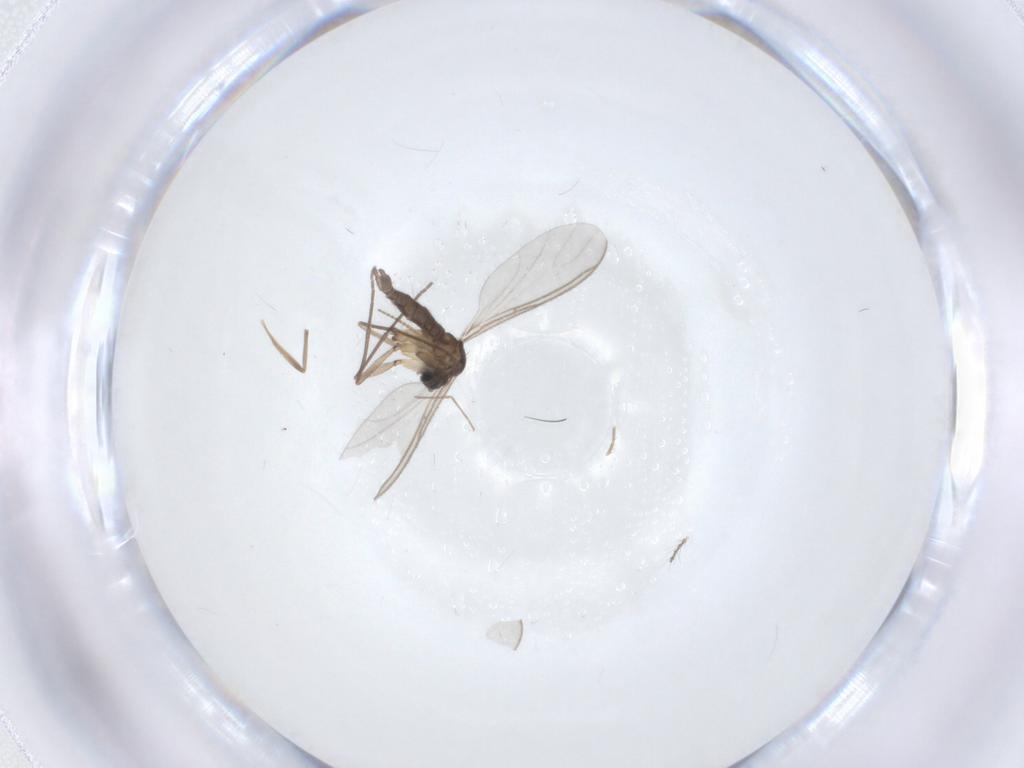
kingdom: Animalia
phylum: Arthropoda
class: Insecta
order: Diptera
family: Sciaridae
